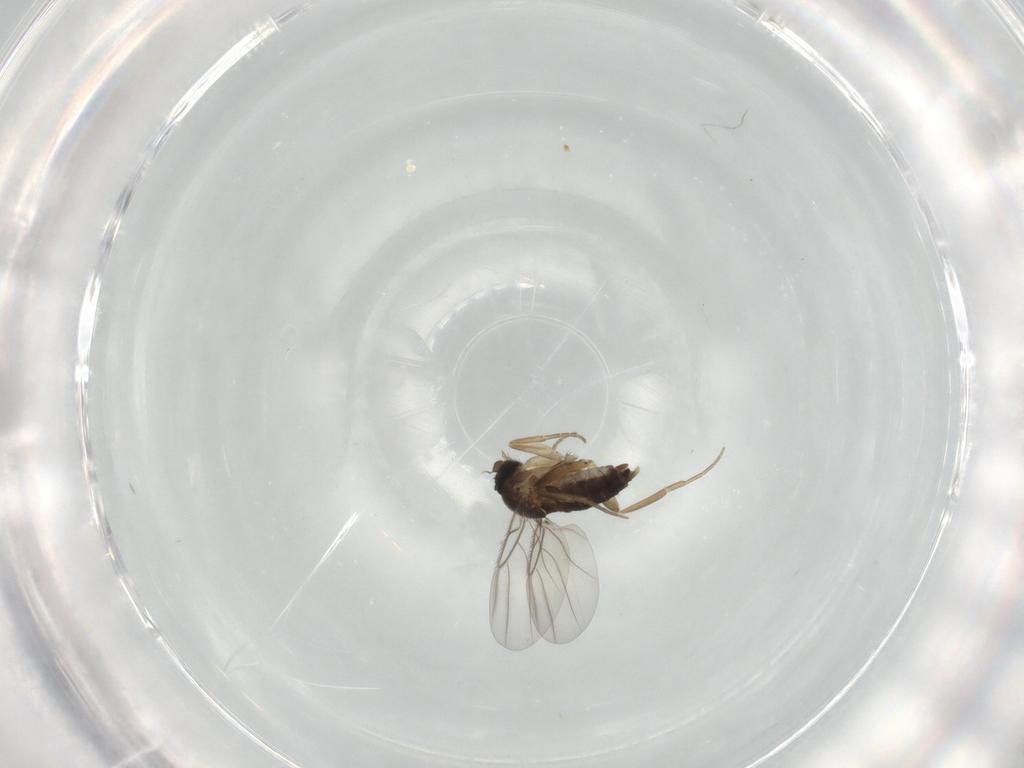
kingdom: Animalia
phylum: Arthropoda
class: Insecta
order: Diptera
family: Phoridae
